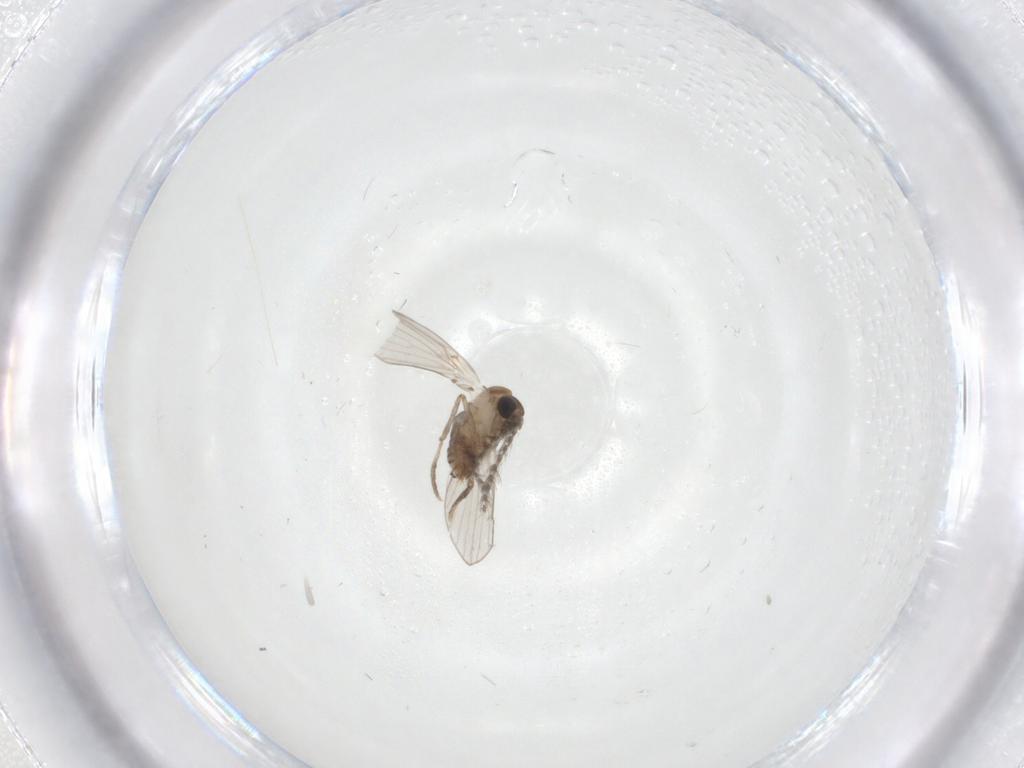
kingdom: Animalia
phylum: Arthropoda
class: Insecta
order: Diptera
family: Psychodidae
